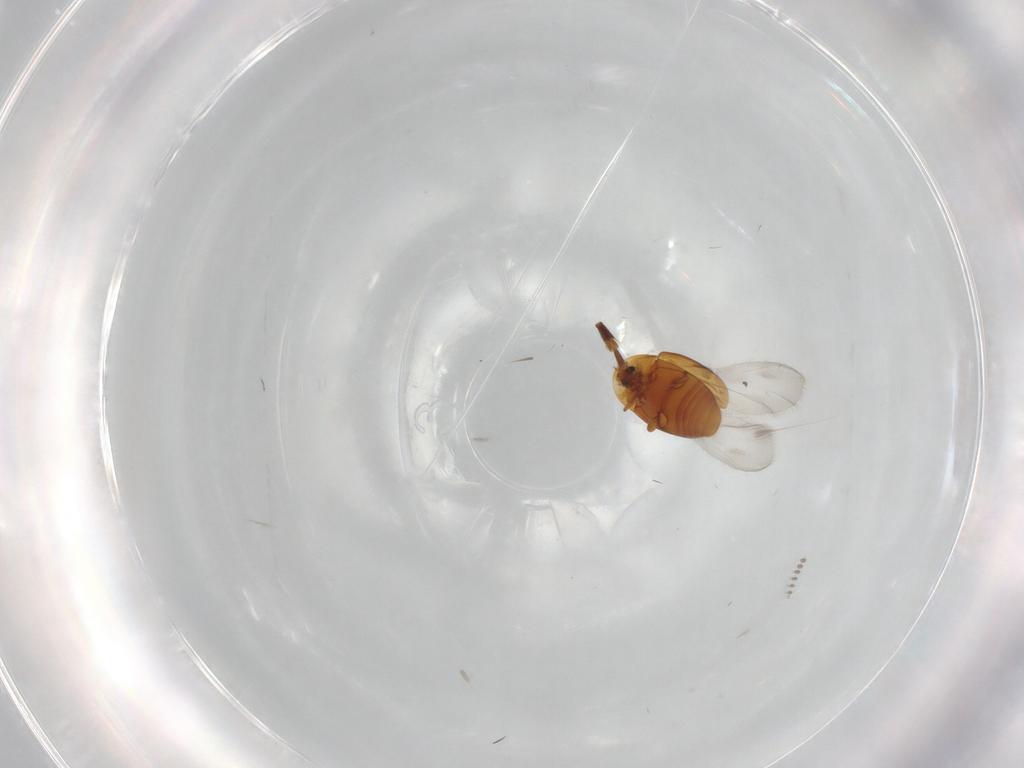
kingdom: Animalia
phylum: Arthropoda
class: Insecta
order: Coleoptera
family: Corylophidae
